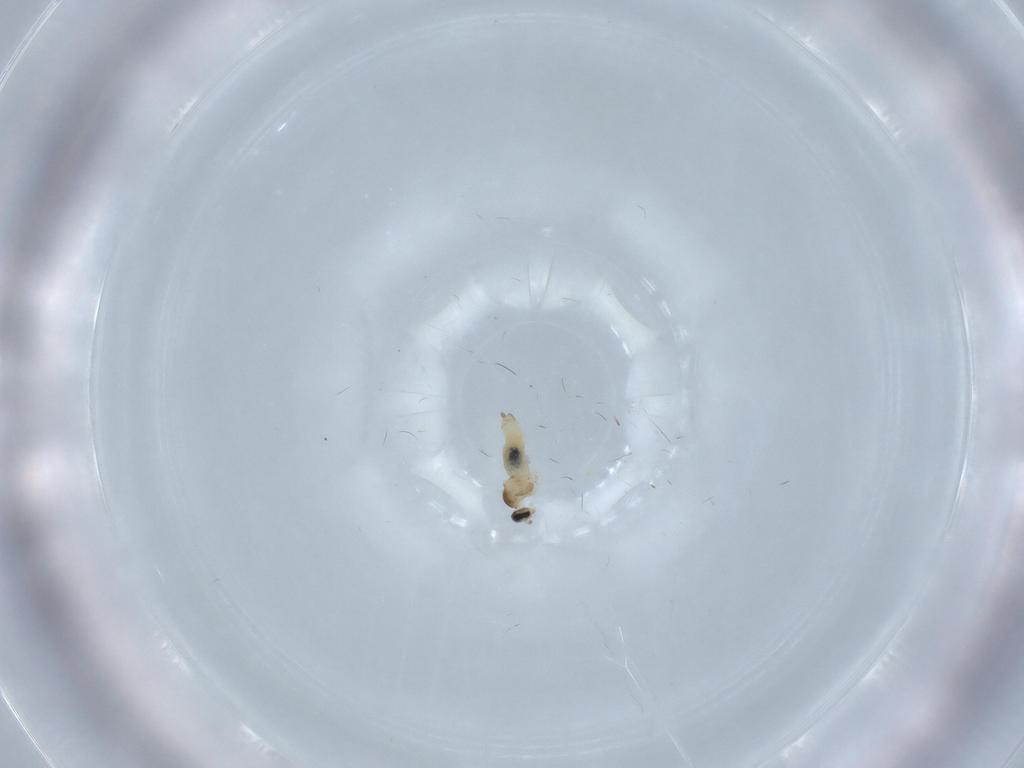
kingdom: Animalia
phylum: Arthropoda
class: Insecta
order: Diptera
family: Cecidomyiidae
